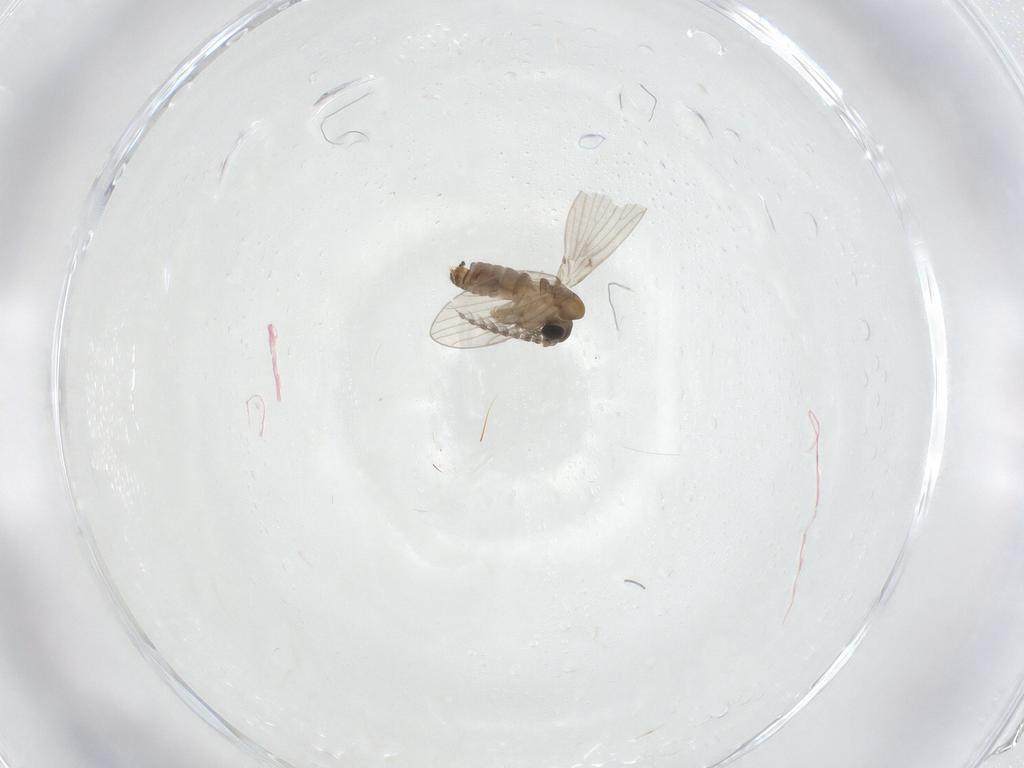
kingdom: Animalia
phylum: Arthropoda
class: Insecta
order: Diptera
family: Psychodidae
